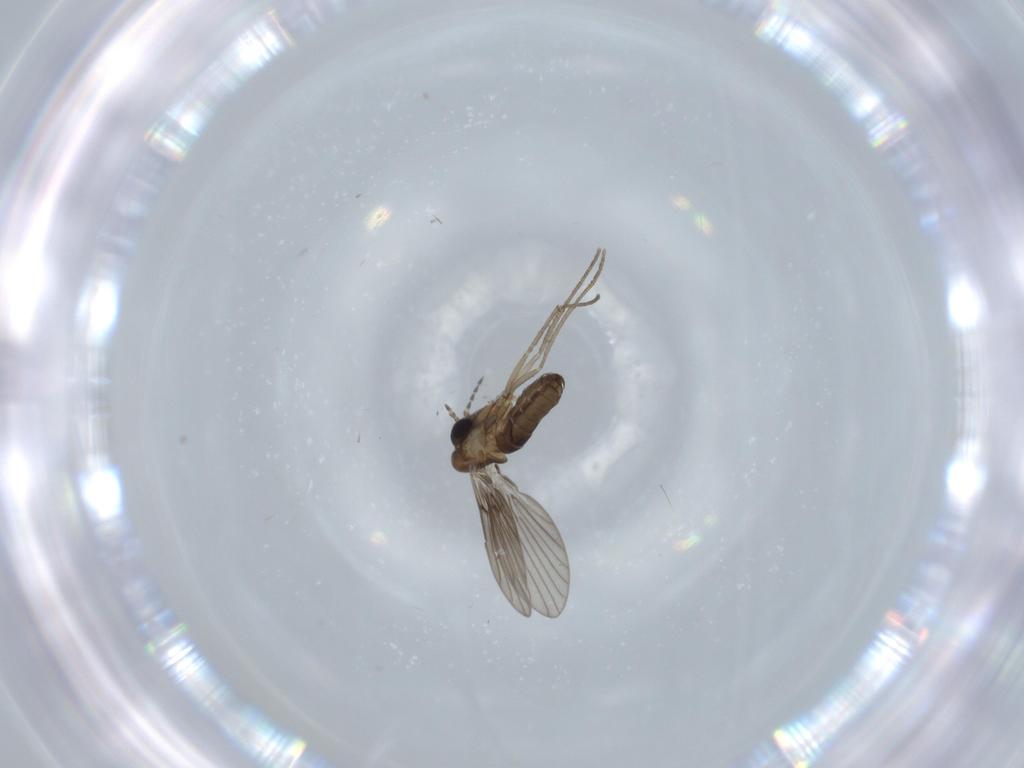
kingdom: Animalia
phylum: Arthropoda
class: Insecta
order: Diptera
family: Psychodidae
